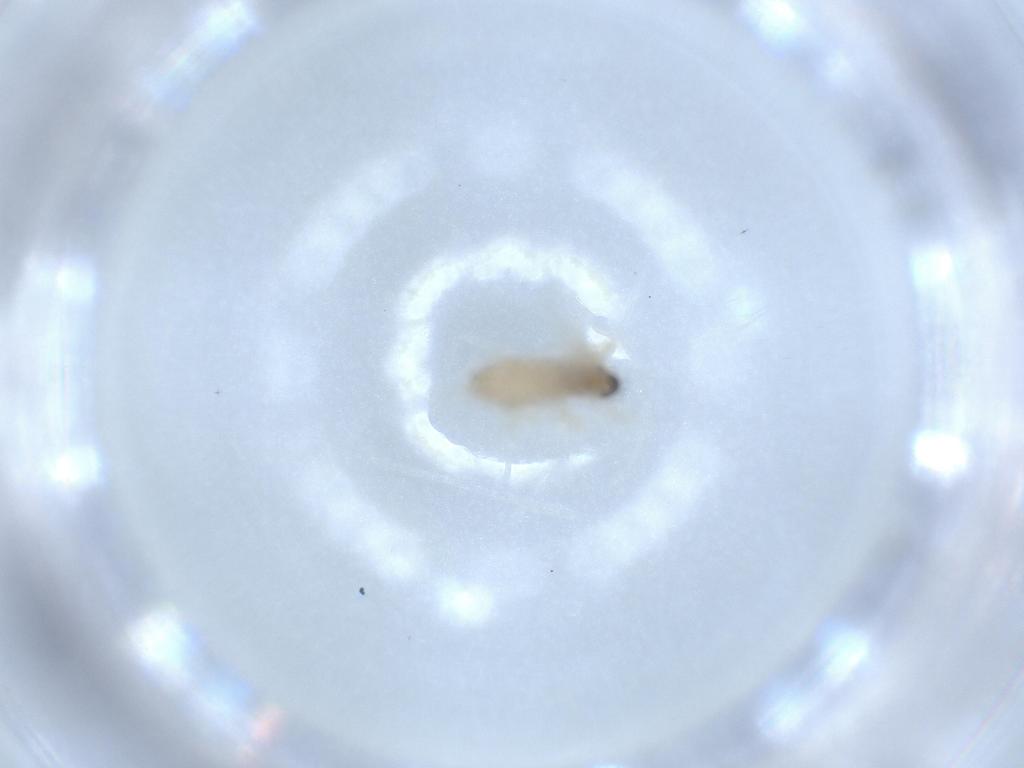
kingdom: Animalia
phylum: Arthropoda
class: Insecta
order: Diptera
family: Cecidomyiidae
